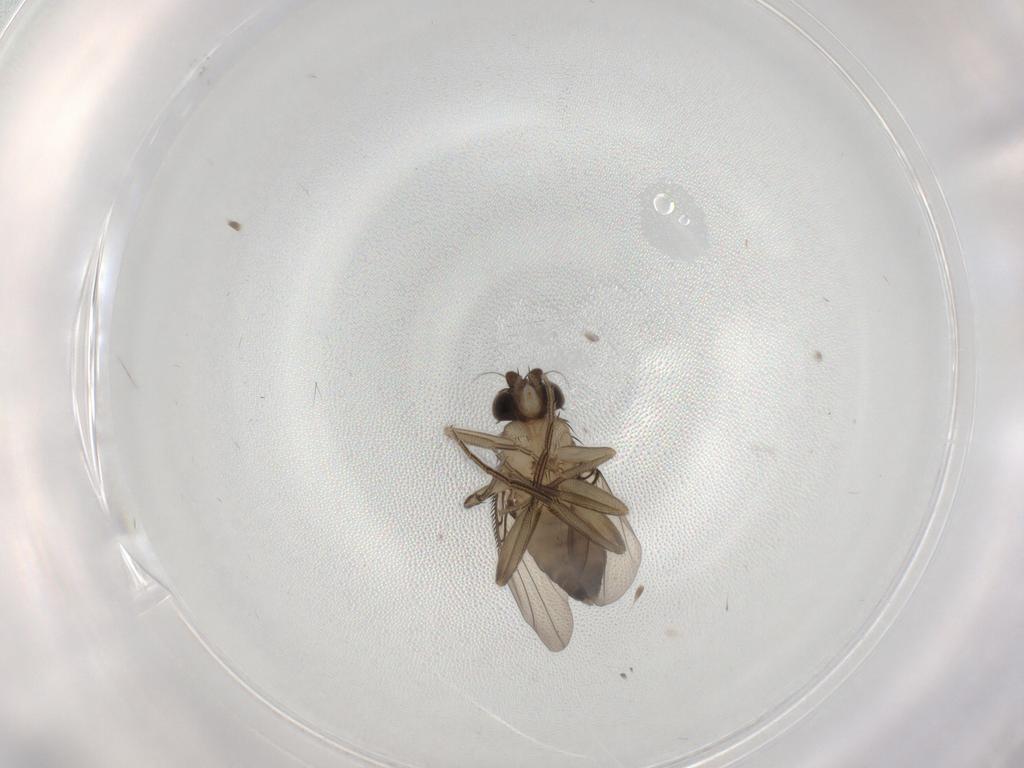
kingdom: Animalia
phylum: Arthropoda
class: Insecta
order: Diptera
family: Phoridae
